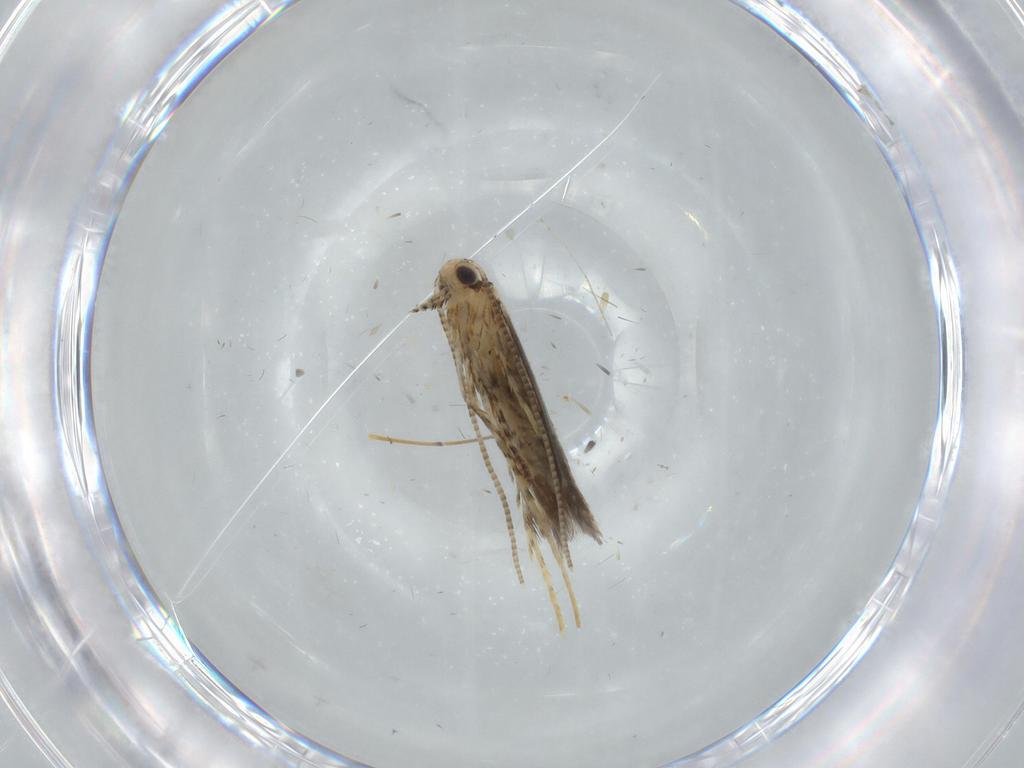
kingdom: Animalia
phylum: Arthropoda
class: Insecta
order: Lepidoptera
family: Gracillariidae
